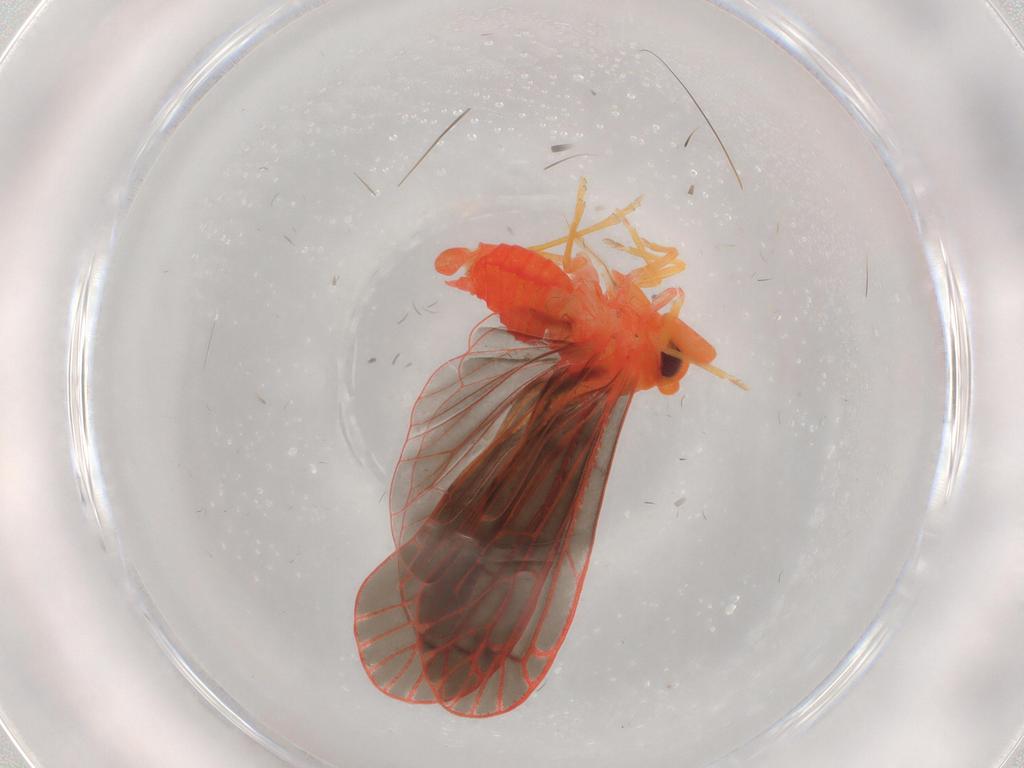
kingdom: Animalia
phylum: Arthropoda
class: Insecta
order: Hemiptera
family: Derbidae
